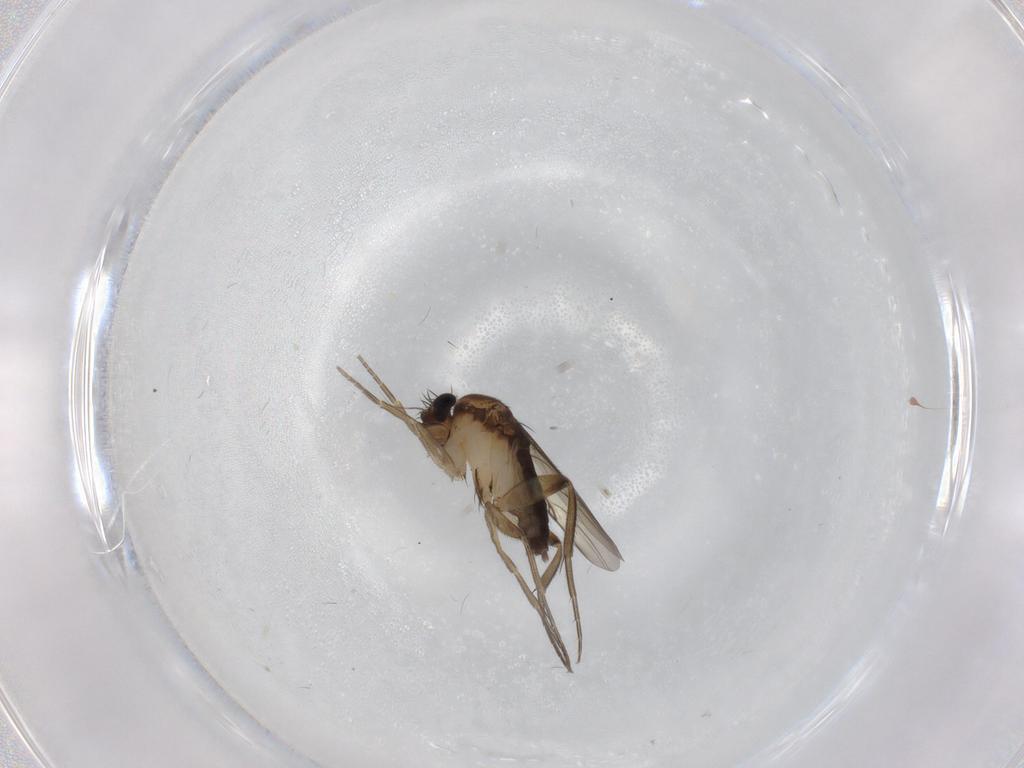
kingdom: Animalia
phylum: Arthropoda
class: Insecta
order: Diptera
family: Phoridae
